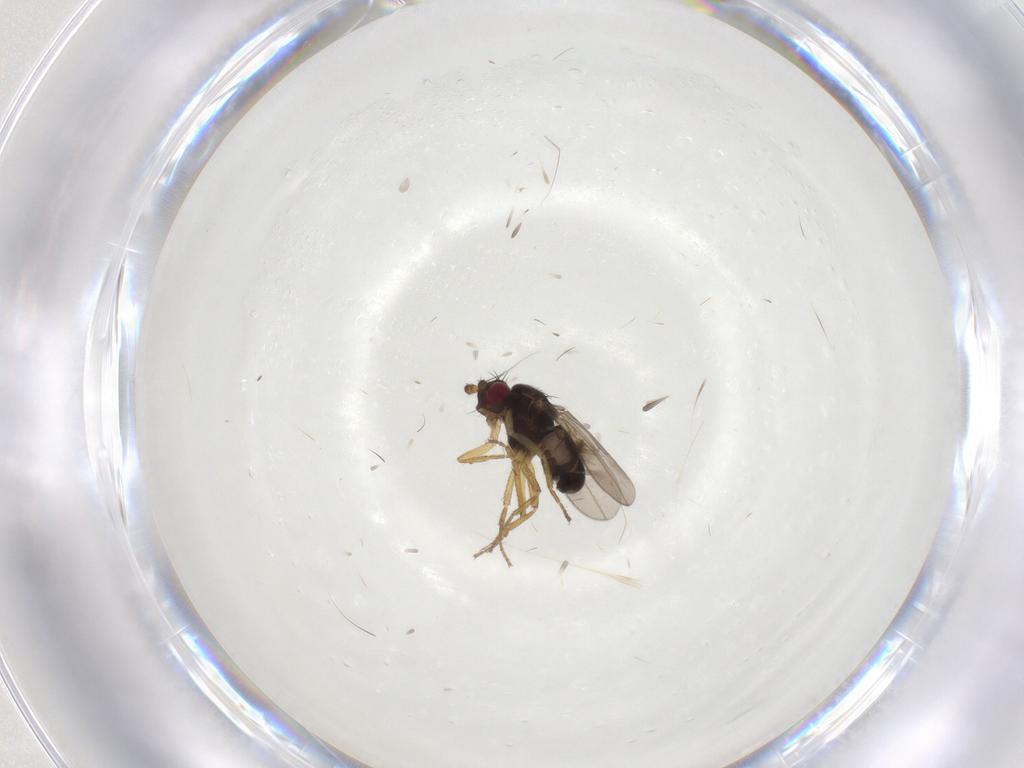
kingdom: Animalia
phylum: Arthropoda
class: Insecta
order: Diptera
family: Sphaeroceridae
